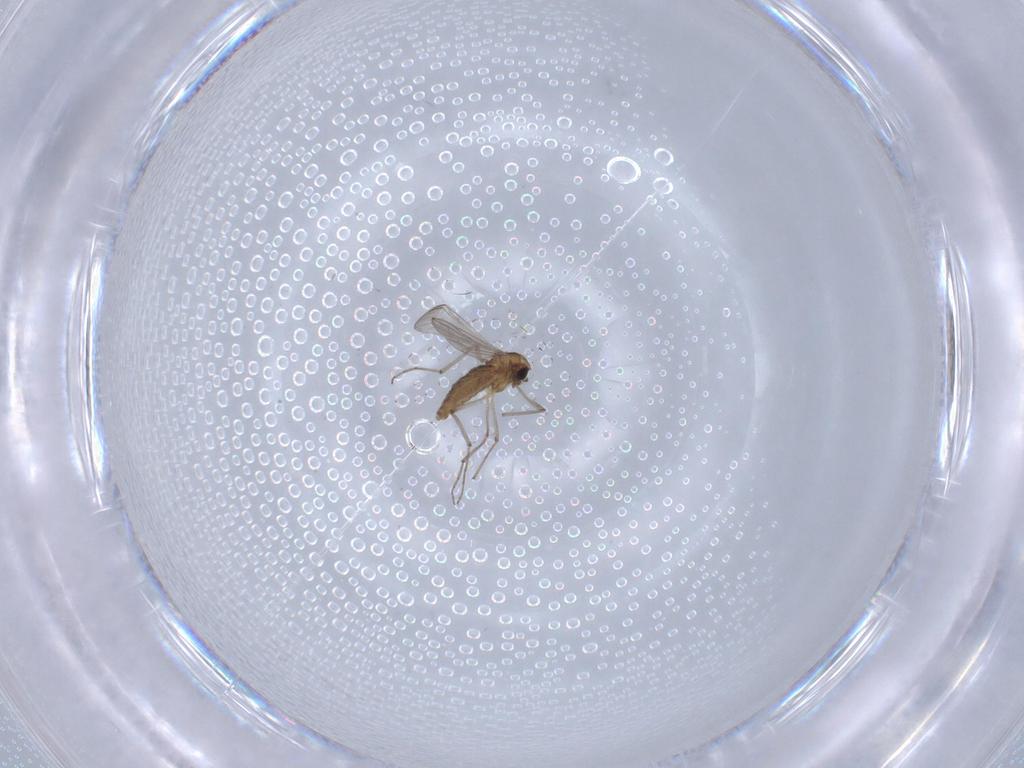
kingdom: Animalia
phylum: Arthropoda
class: Insecta
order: Diptera
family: Chironomidae
